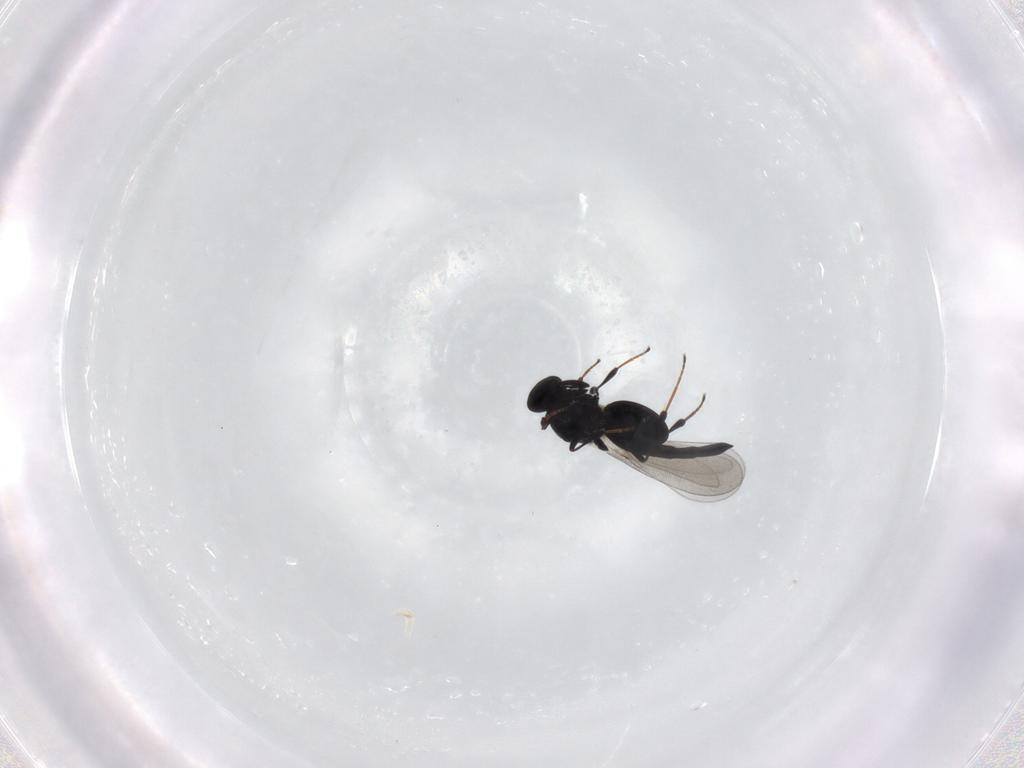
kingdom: Animalia
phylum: Arthropoda
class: Insecta
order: Hymenoptera
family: Platygastridae
